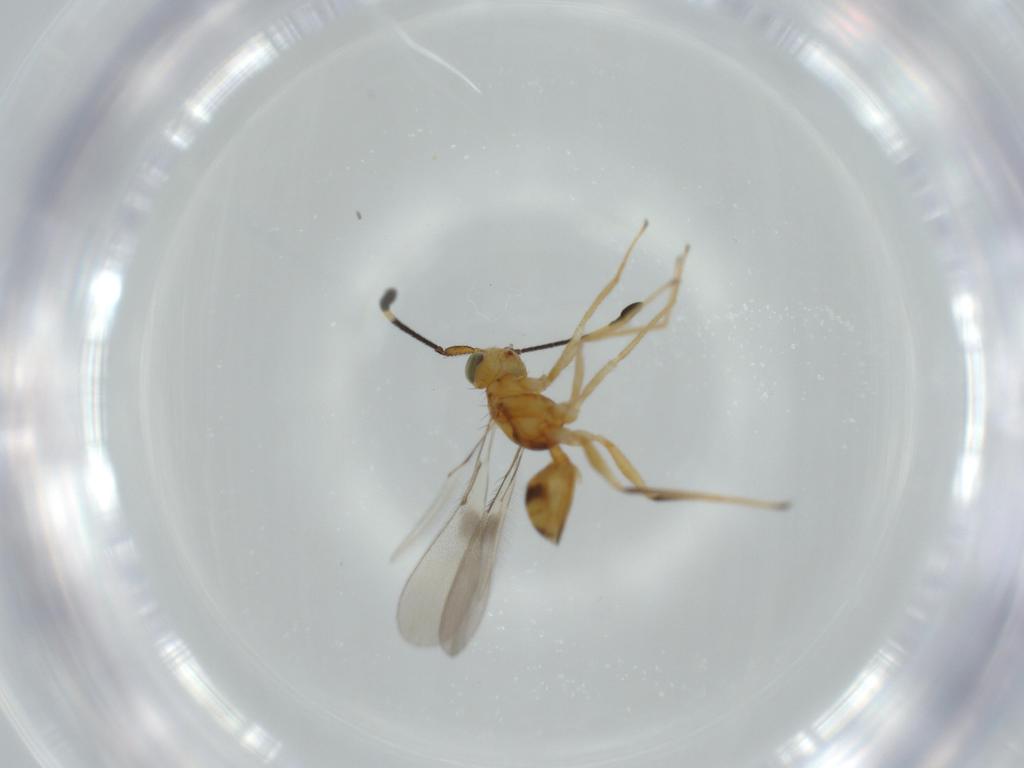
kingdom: Animalia
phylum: Arthropoda
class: Insecta
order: Hymenoptera
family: Mymaridae
